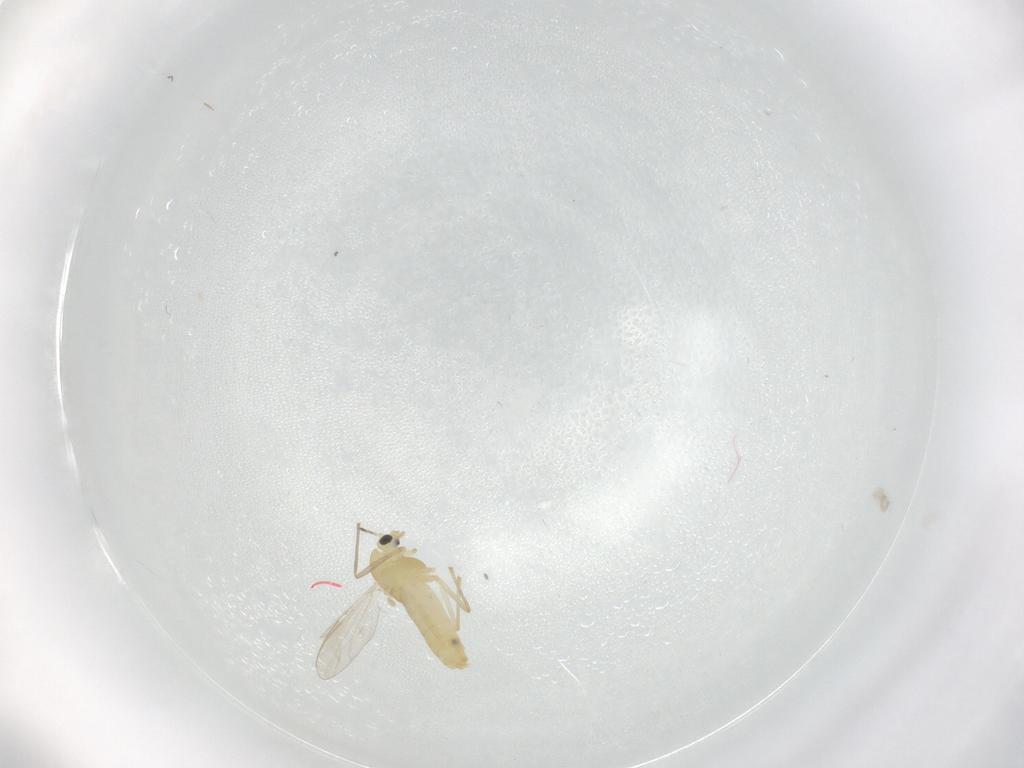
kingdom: Animalia
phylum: Arthropoda
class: Insecta
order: Diptera
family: Chironomidae
